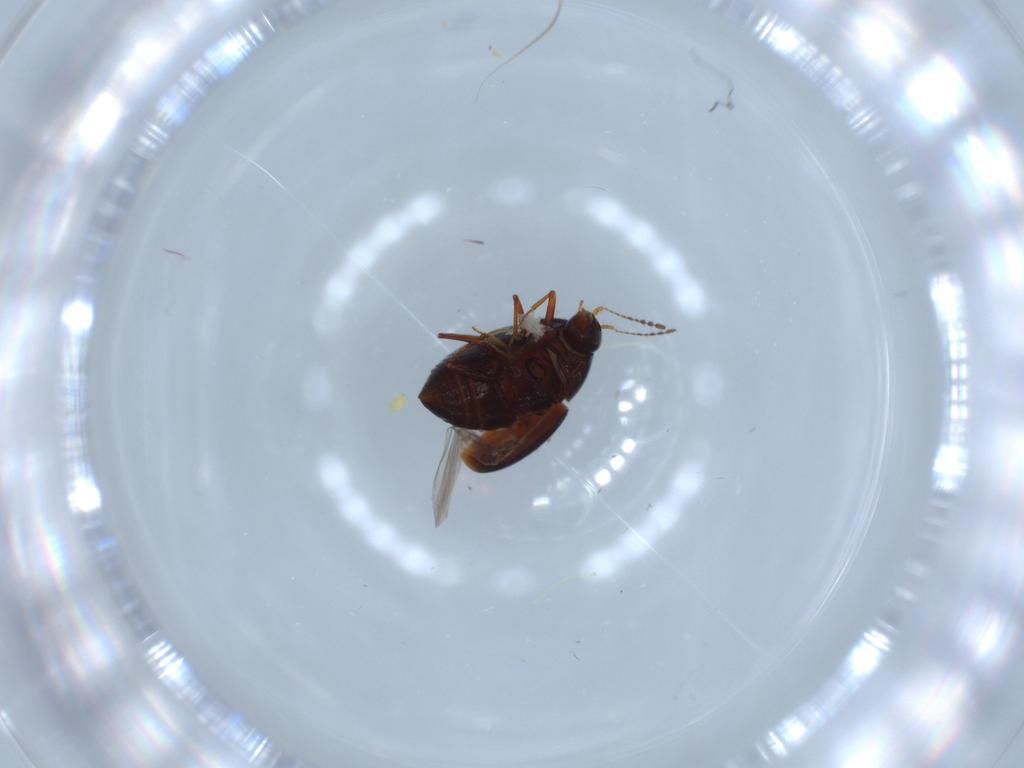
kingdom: Animalia
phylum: Arthropoda
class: Insecta
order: Coleoptera
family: Staphylinidae
